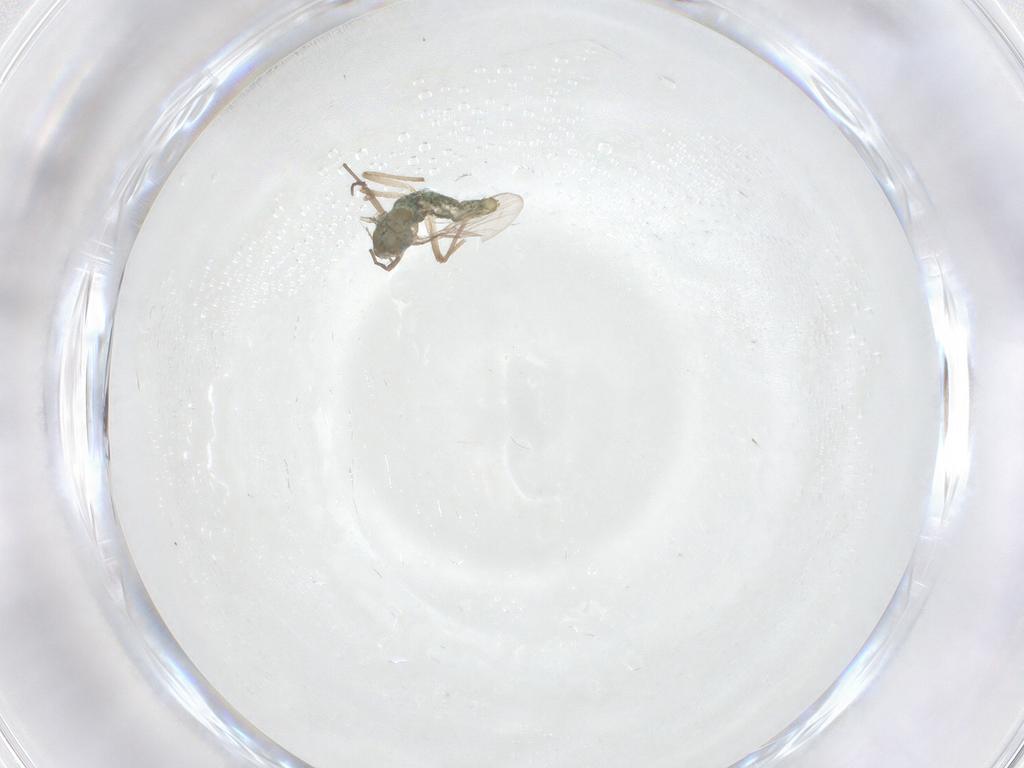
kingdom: Animalia
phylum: Arthropoda
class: Insecta
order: Diptera
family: Chironomidae
